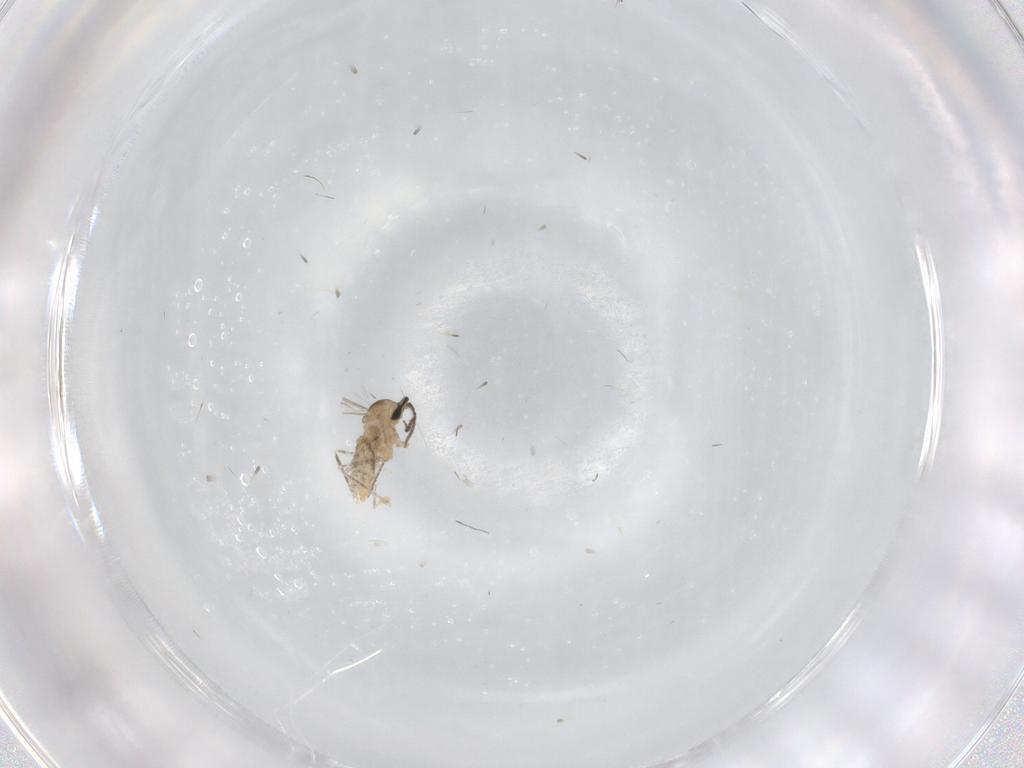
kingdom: Animalia
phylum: Arthropoda
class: Insecta
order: Diptera
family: Cecidomyiidae
